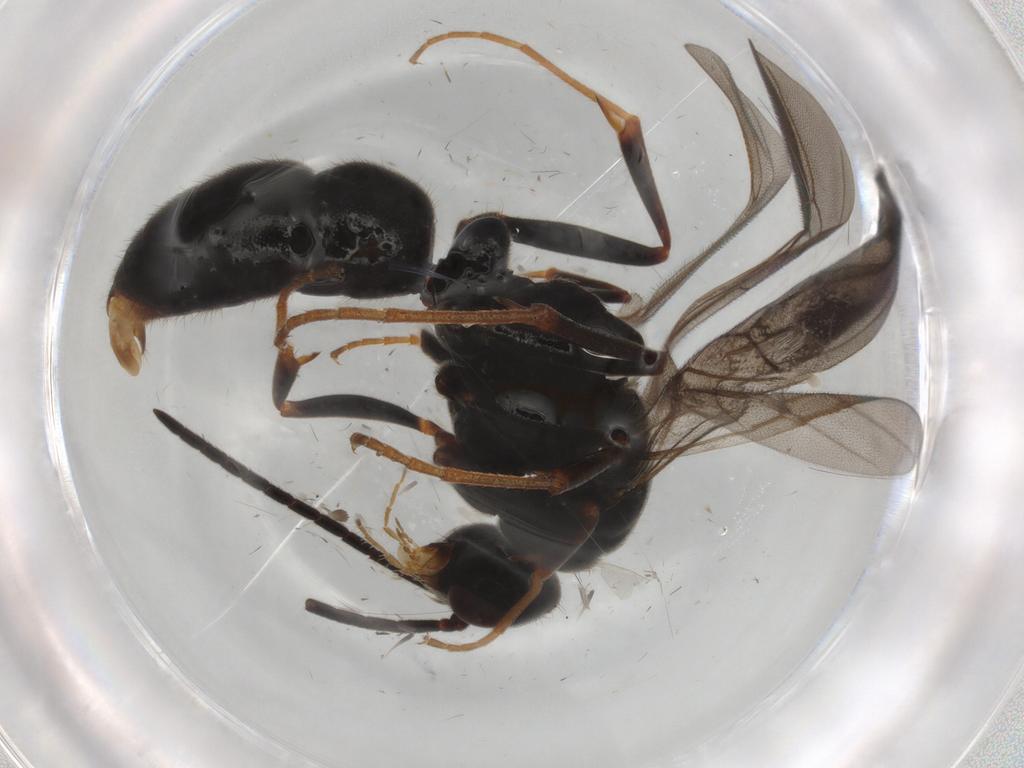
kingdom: Animalia
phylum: Arthropoda
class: Insecta
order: Hymenoptera
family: Formicidae
